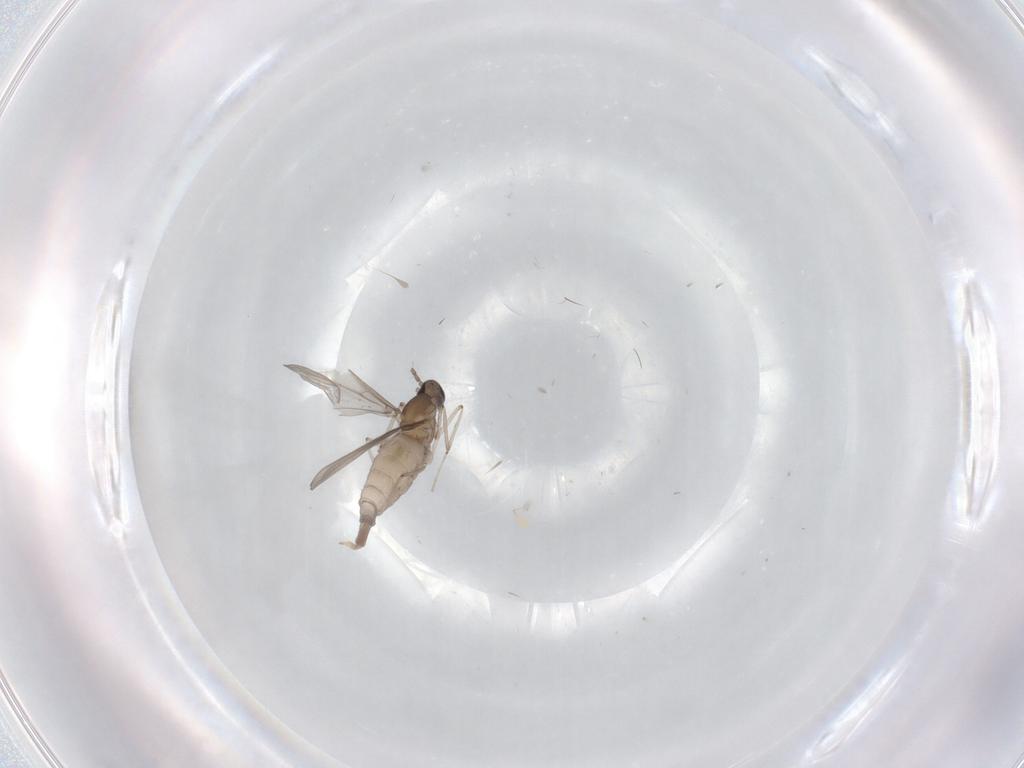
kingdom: Animalia
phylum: Arthropoda
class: Insecta
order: Diptera
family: Cecidomyiidae
